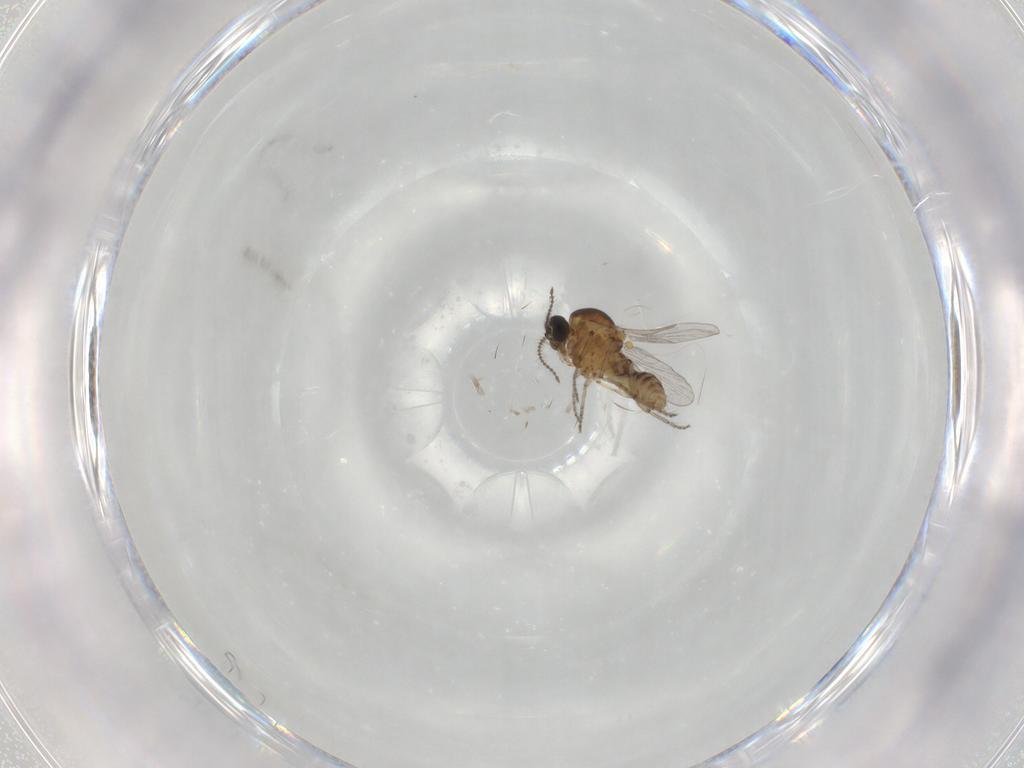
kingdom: Animalia
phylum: Arthropoda
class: Insecta
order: Diptera
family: Ceratopogonidae
